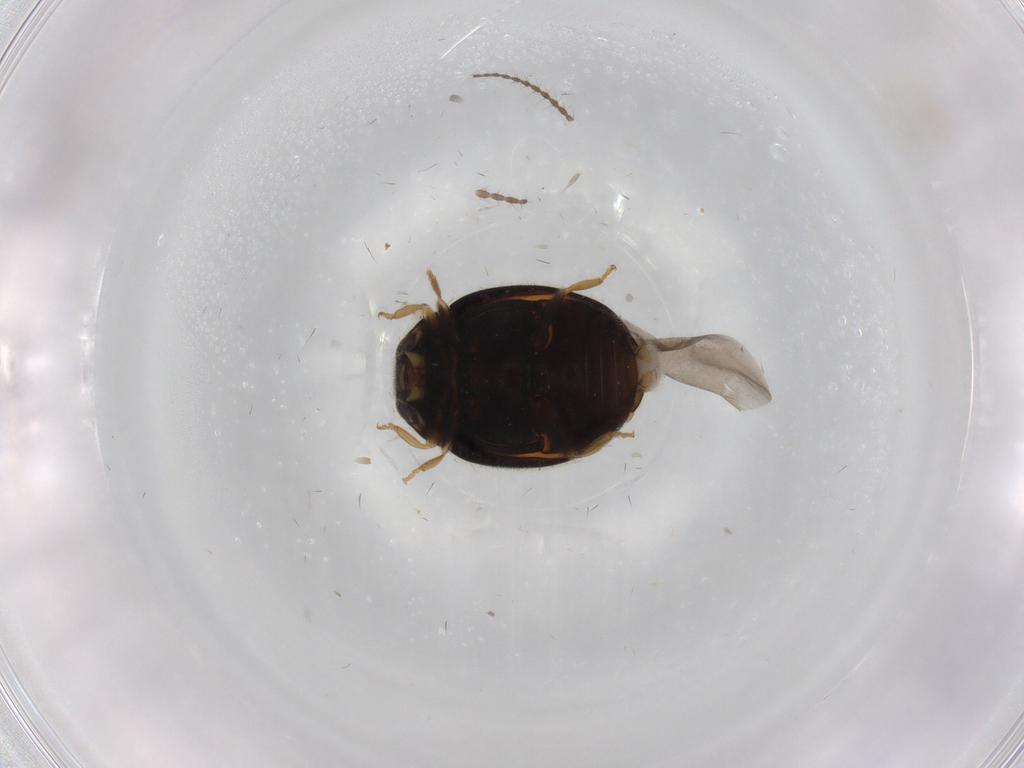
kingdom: Animalia
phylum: Arthropoda
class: Insecta
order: Coleoptera
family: Coccinellidae
